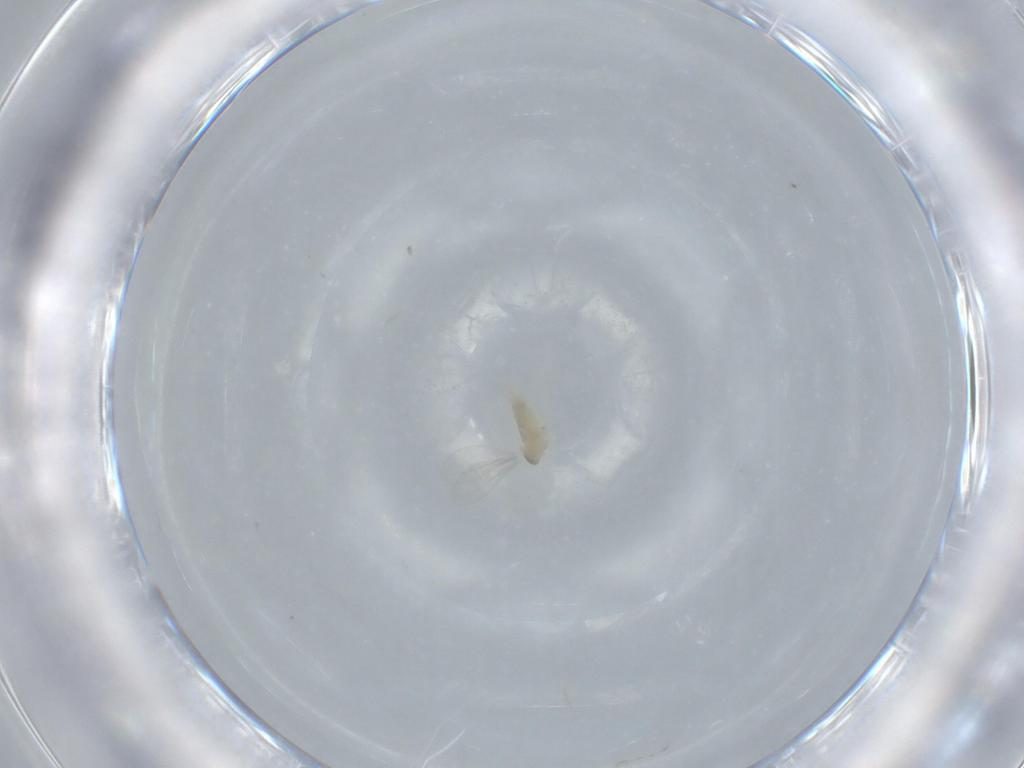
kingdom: Animalia
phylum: Arthropoda
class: Insecta
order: Diptera
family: Cecidomyiidae
